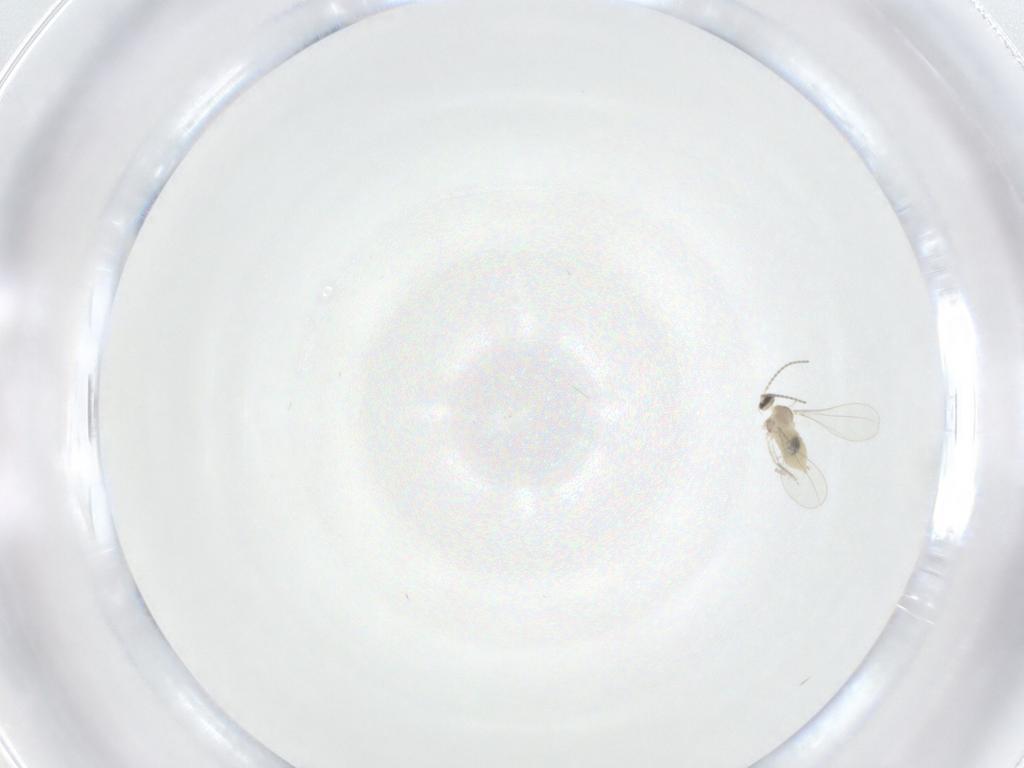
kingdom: Animalia
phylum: Arthropoda
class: Insecta
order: Diptera
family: Cecidomyiidae
